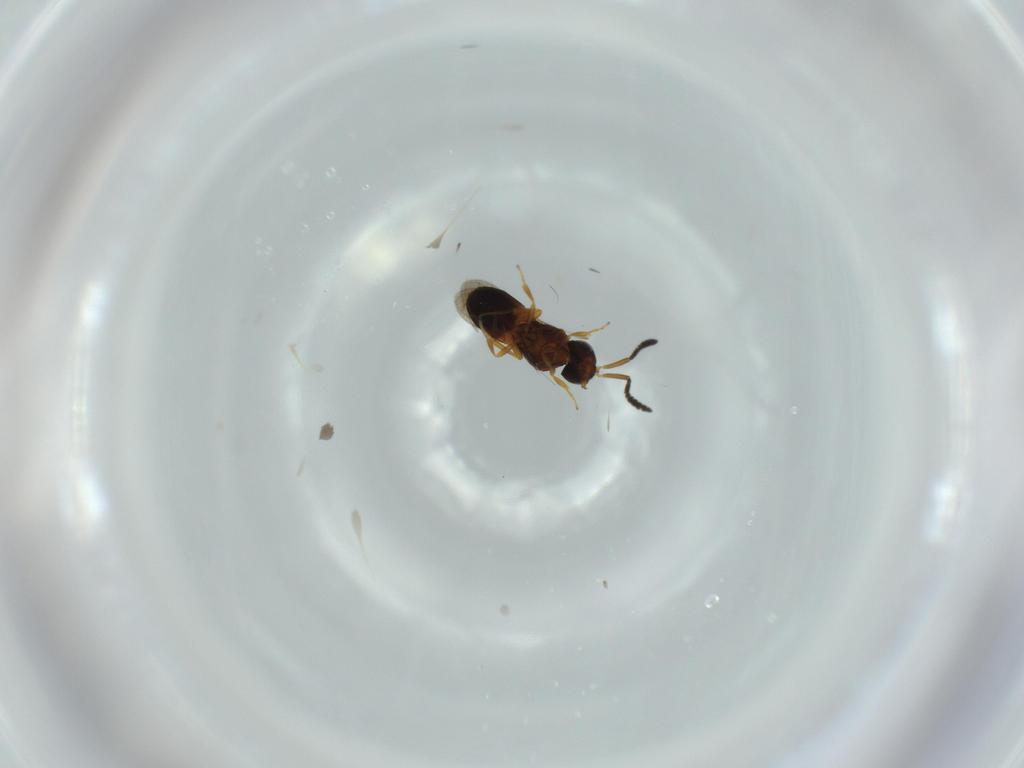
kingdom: Animalia
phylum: Arthropoda
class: Insecta
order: Hymenoptera
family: Scelionidae
